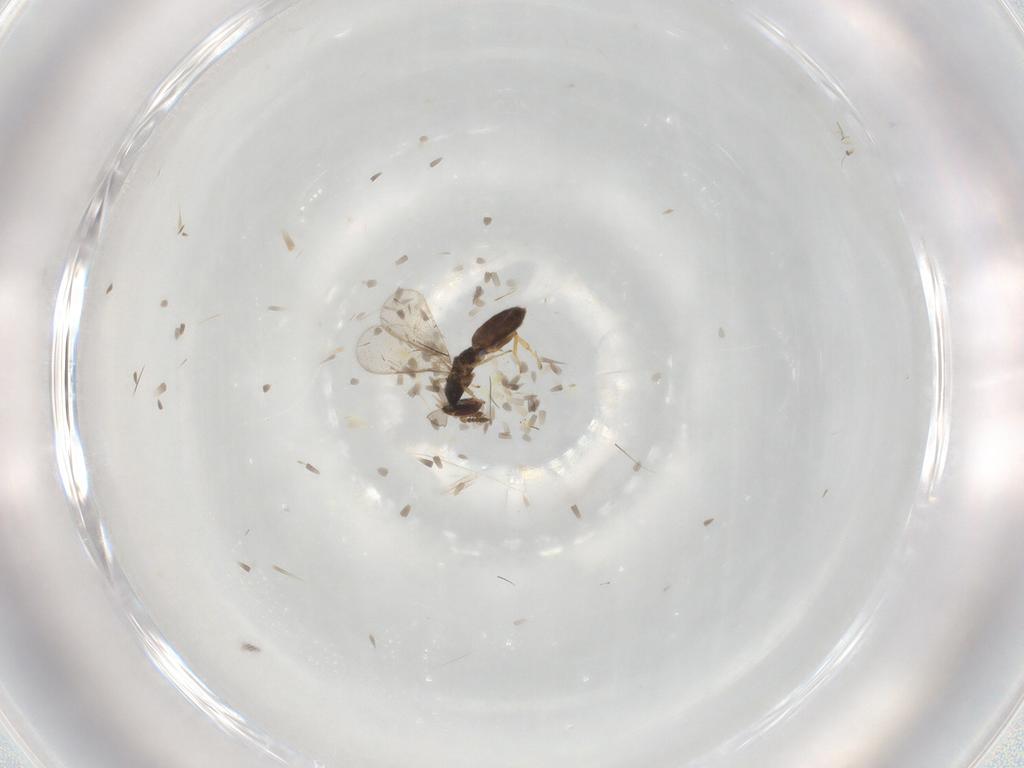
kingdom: Animalia
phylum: Arthropoda
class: Insecta
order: Hymenoptera
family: Eulophidae
